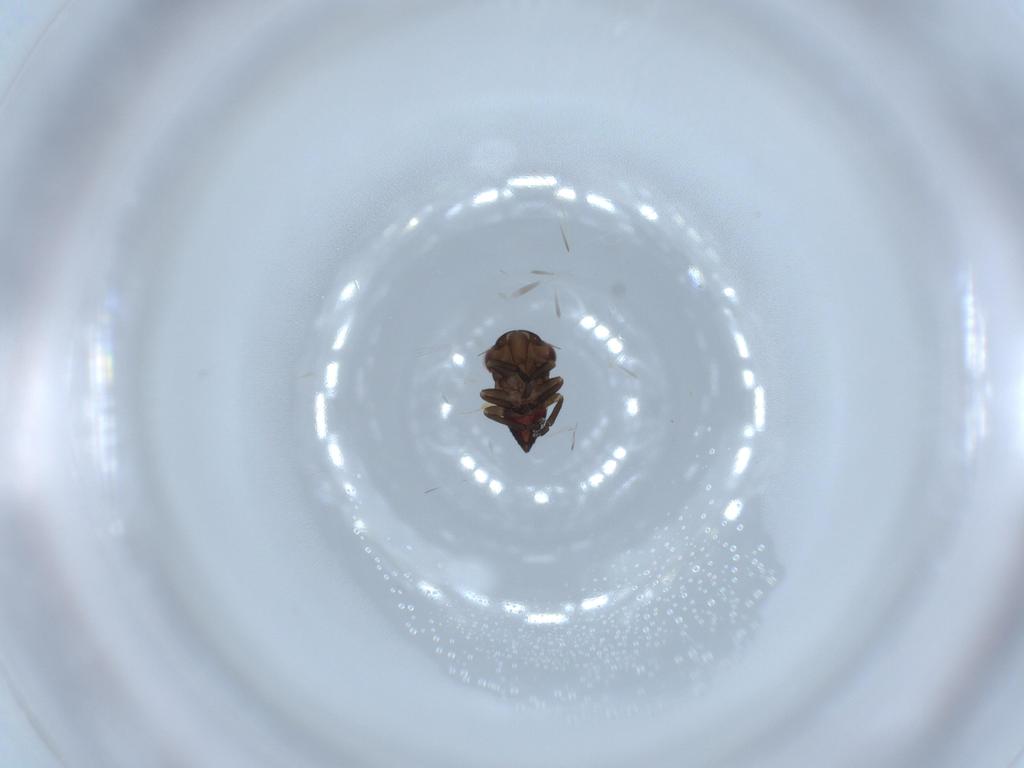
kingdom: Animalia
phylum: Arthropoda
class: Insecta
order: Hemiptera
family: Cicadellidae
